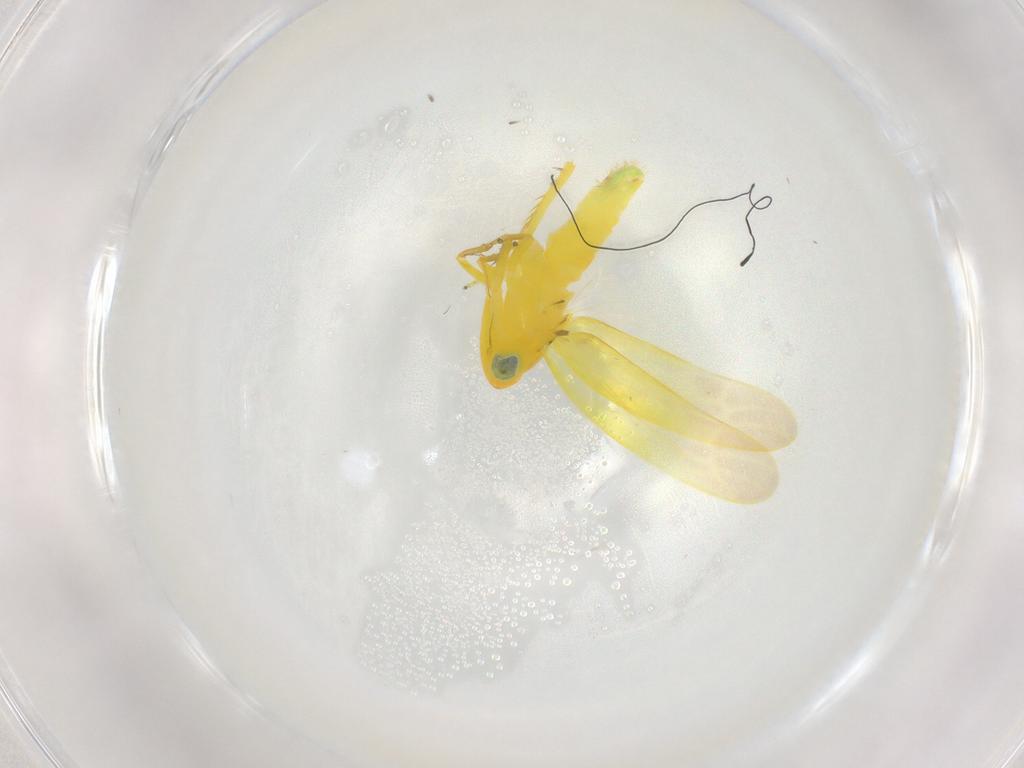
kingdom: Animalia
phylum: Arthropoda
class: Insecta
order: Hemiptera
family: Cicadellidae
